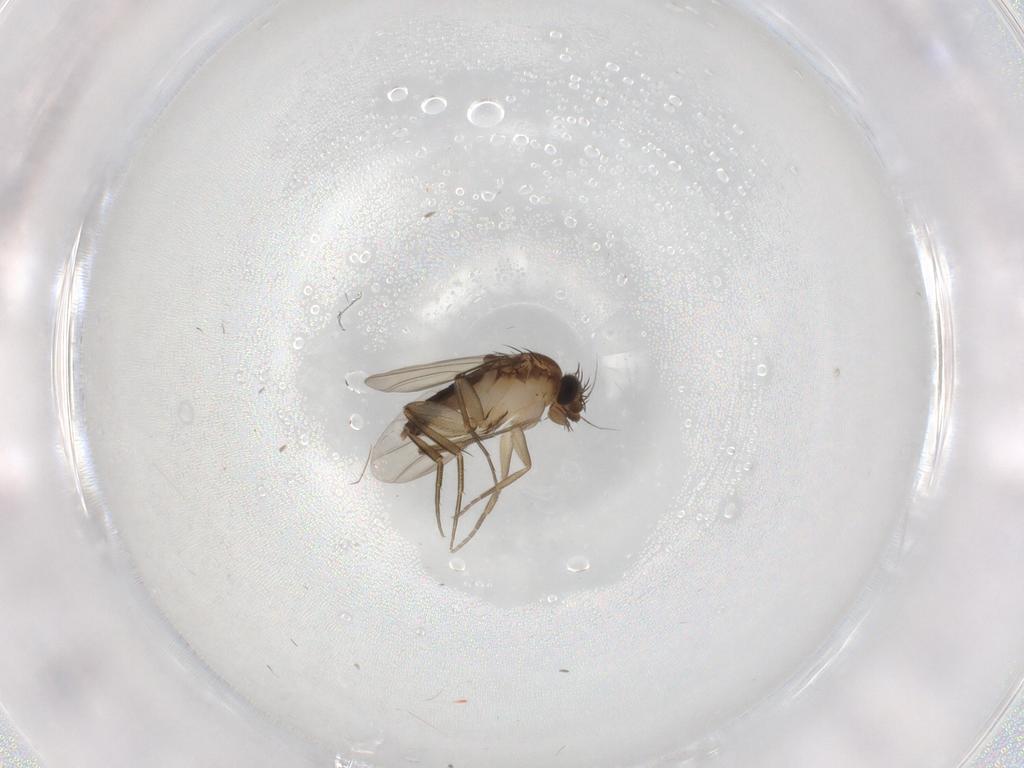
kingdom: Animalia
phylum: Arthropoda
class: Insecta
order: Diptera
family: Phoridae
